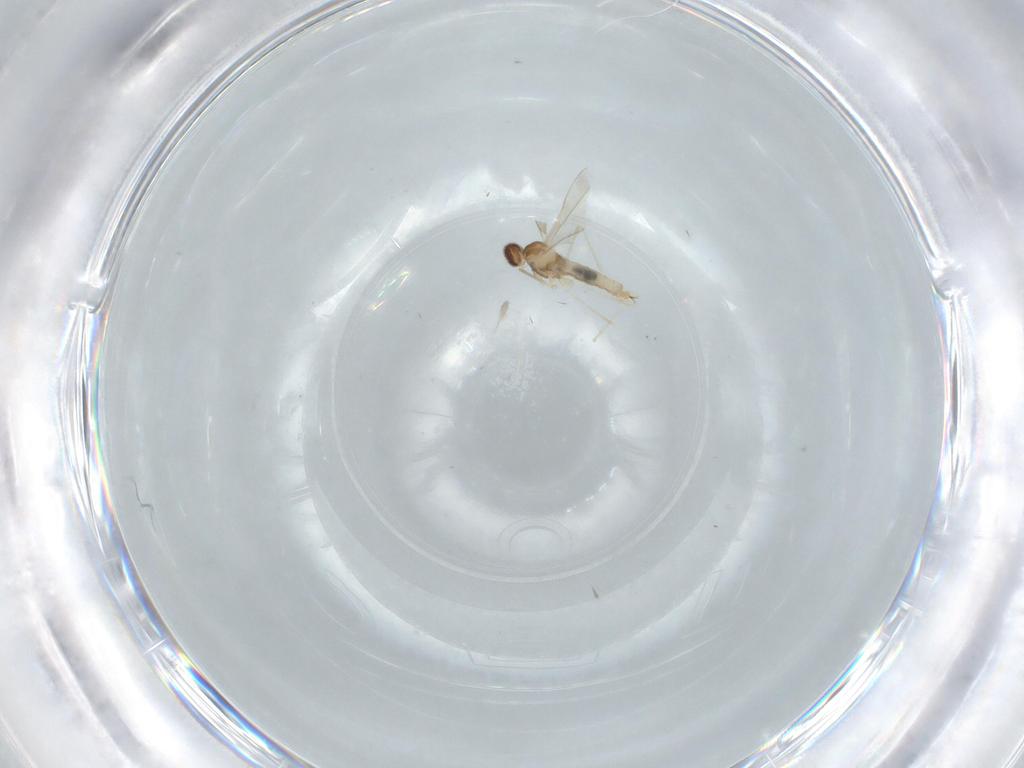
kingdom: Animalia
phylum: Arthropoda
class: Insecta
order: Diptera
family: Cecidomyiidae
